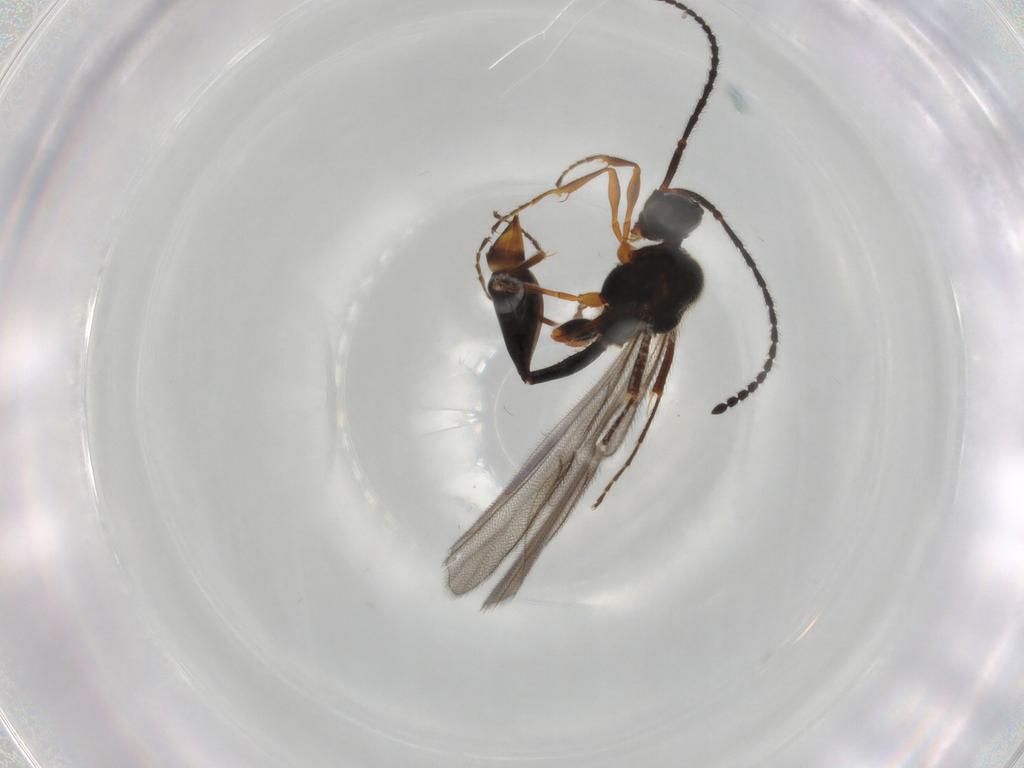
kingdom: Animalia
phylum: Arthropoda
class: Insecta
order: Hymenoptera
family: Diapriidae
